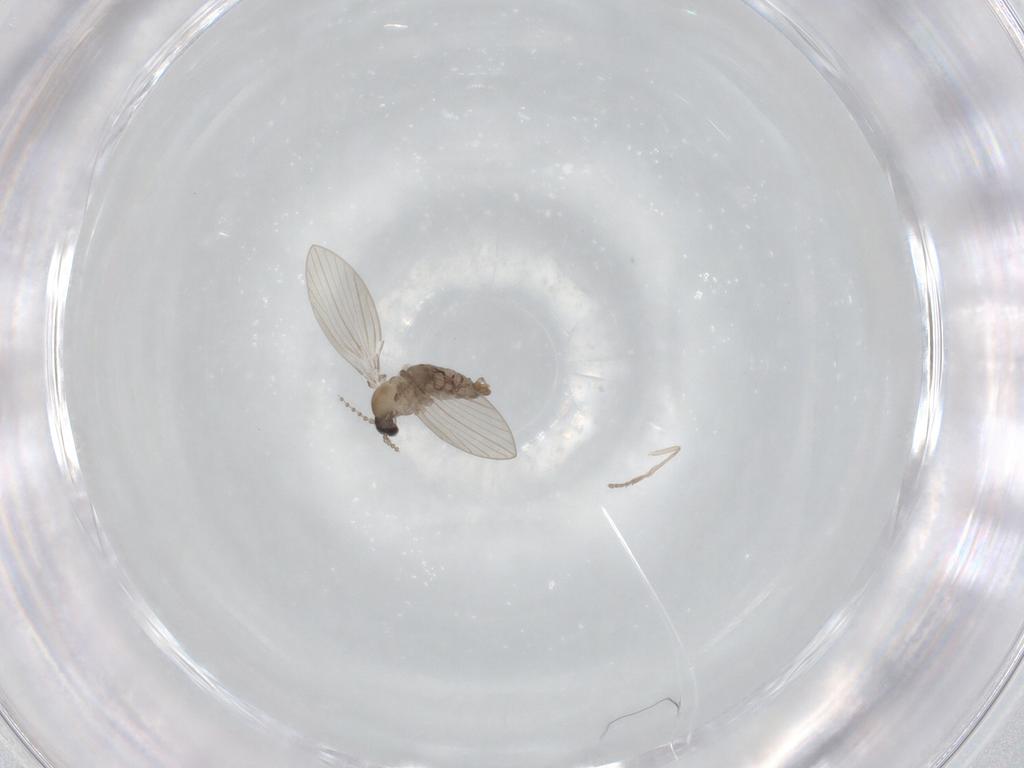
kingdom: Animalia
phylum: Arthropoda
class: Insecta
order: Diptera
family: Psychodidae
